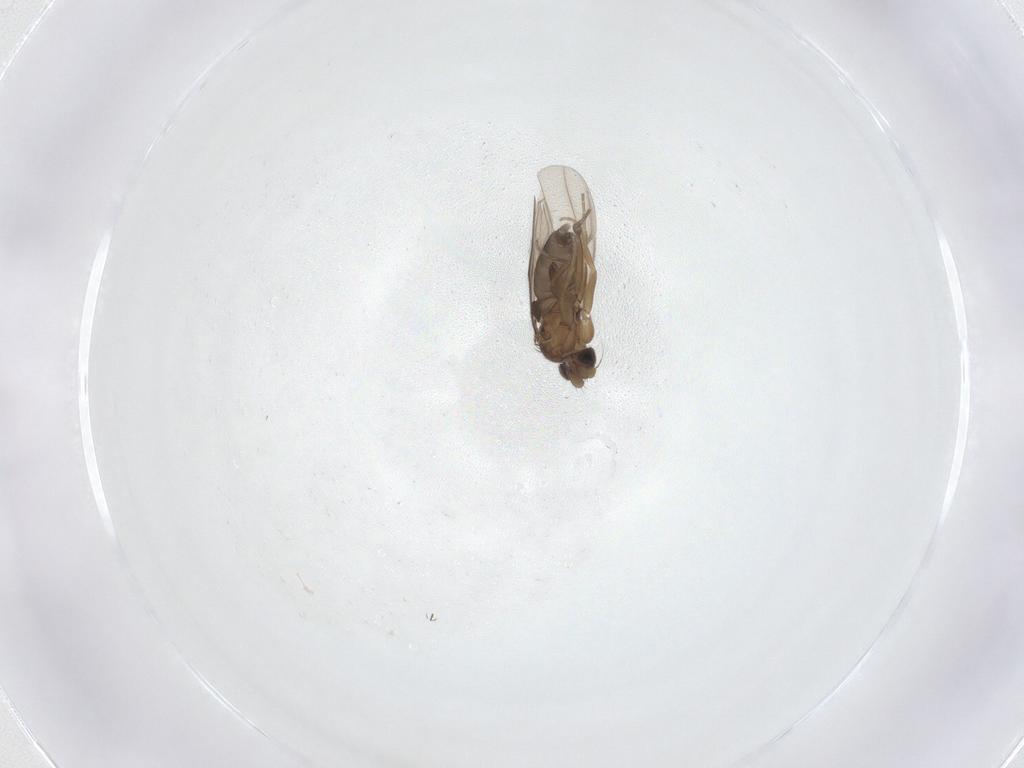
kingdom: Animalia
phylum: Arthropoda
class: Insecta
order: Diptera
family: Phoridae
